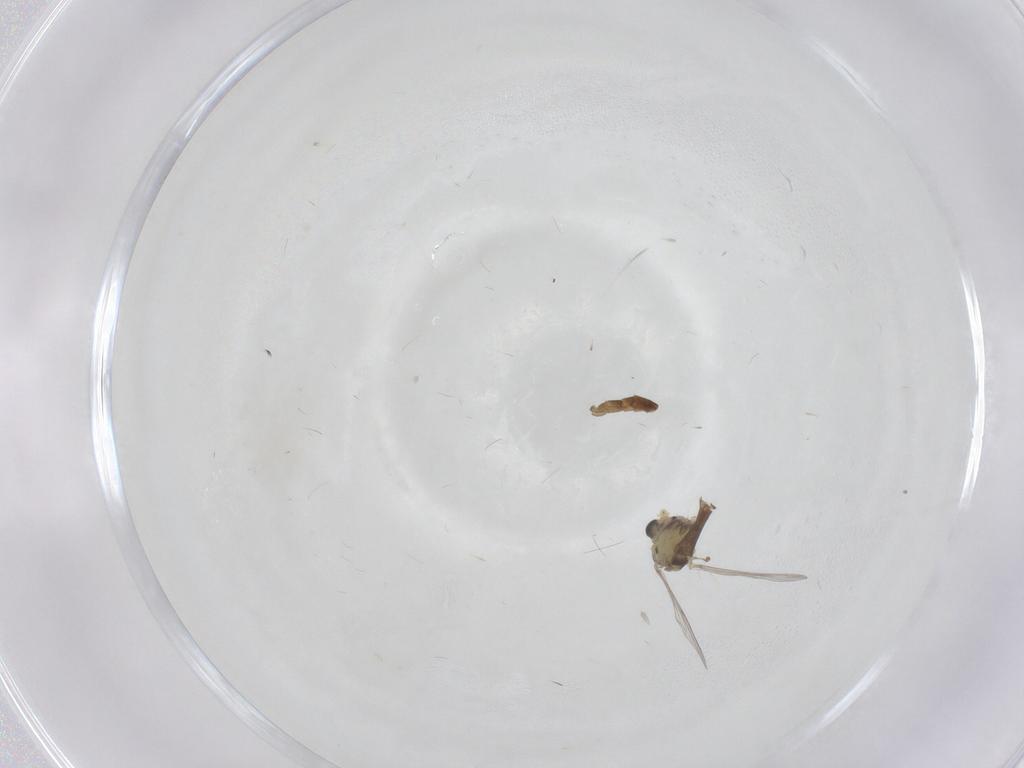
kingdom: Animalia
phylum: Arthropoda
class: Insecta
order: Diptera
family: Chironomidae
